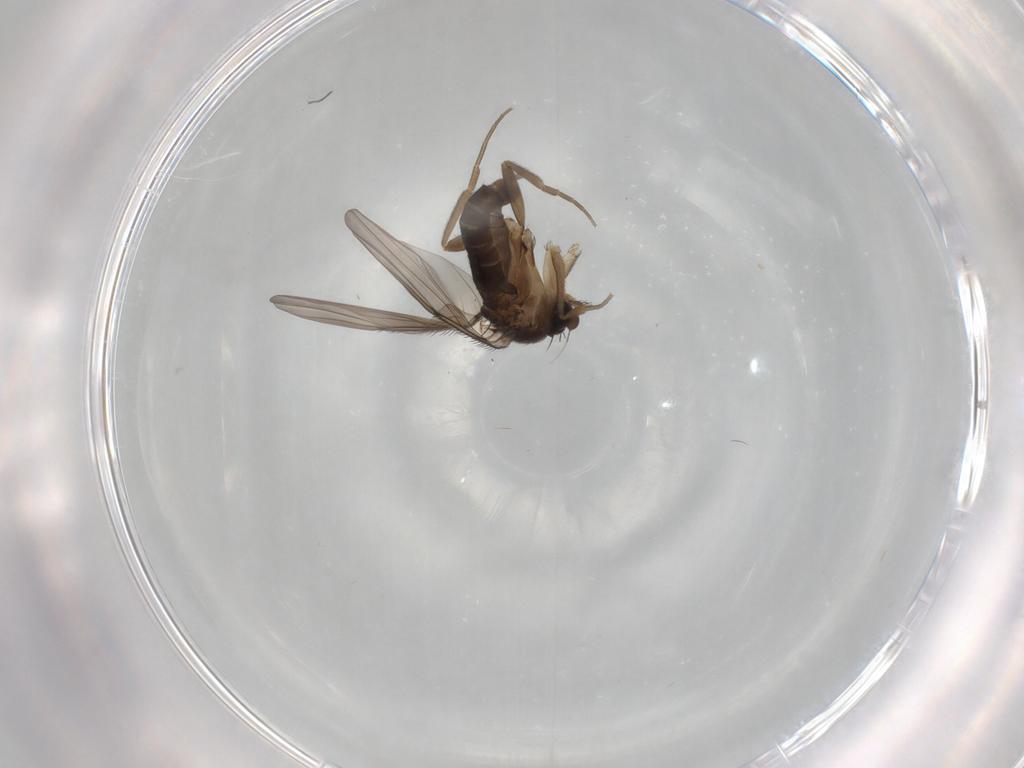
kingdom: Animalia
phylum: Arthropoda
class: Insecta
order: Diptera
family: Phoridae
